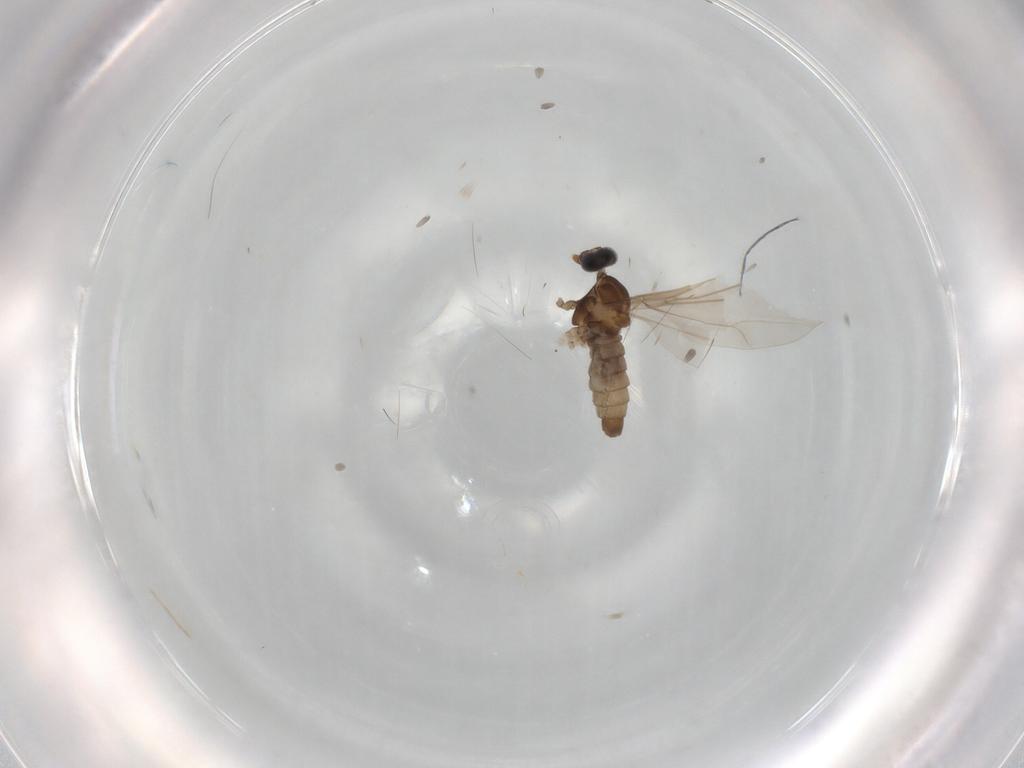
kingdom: Animalia
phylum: Arthropoda
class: Insecta
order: Diptera
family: Cecidomyiidae
